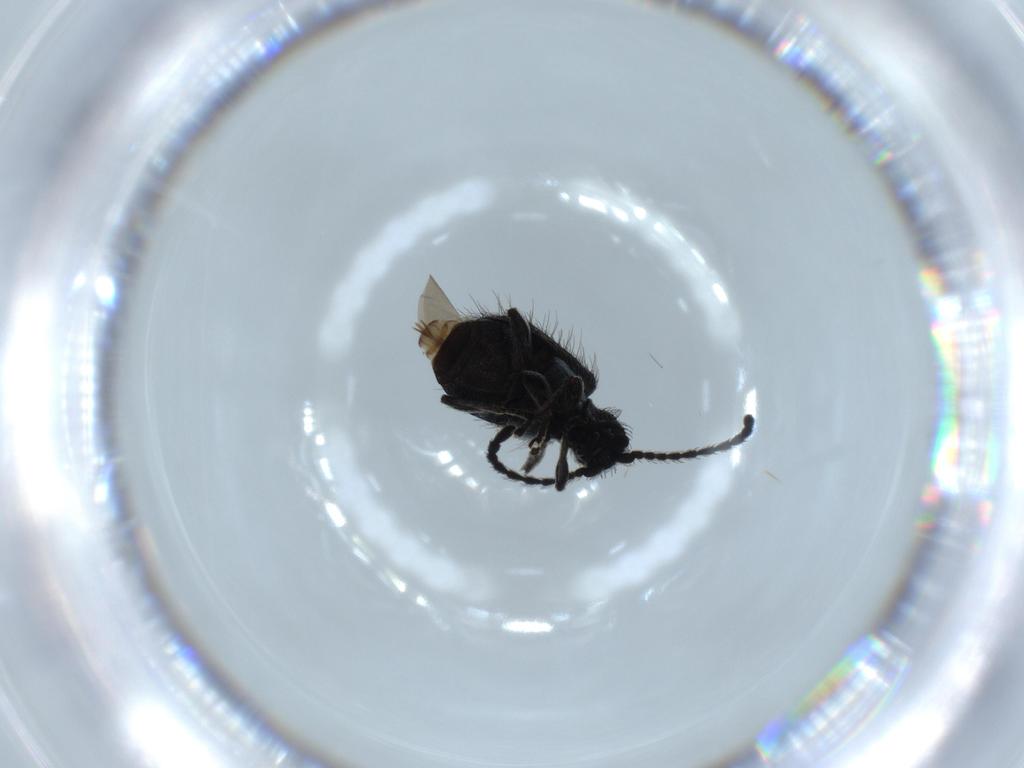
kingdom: Animalia
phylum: Arthropoda
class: Insecta
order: Coleoptera
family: Ptinidae
